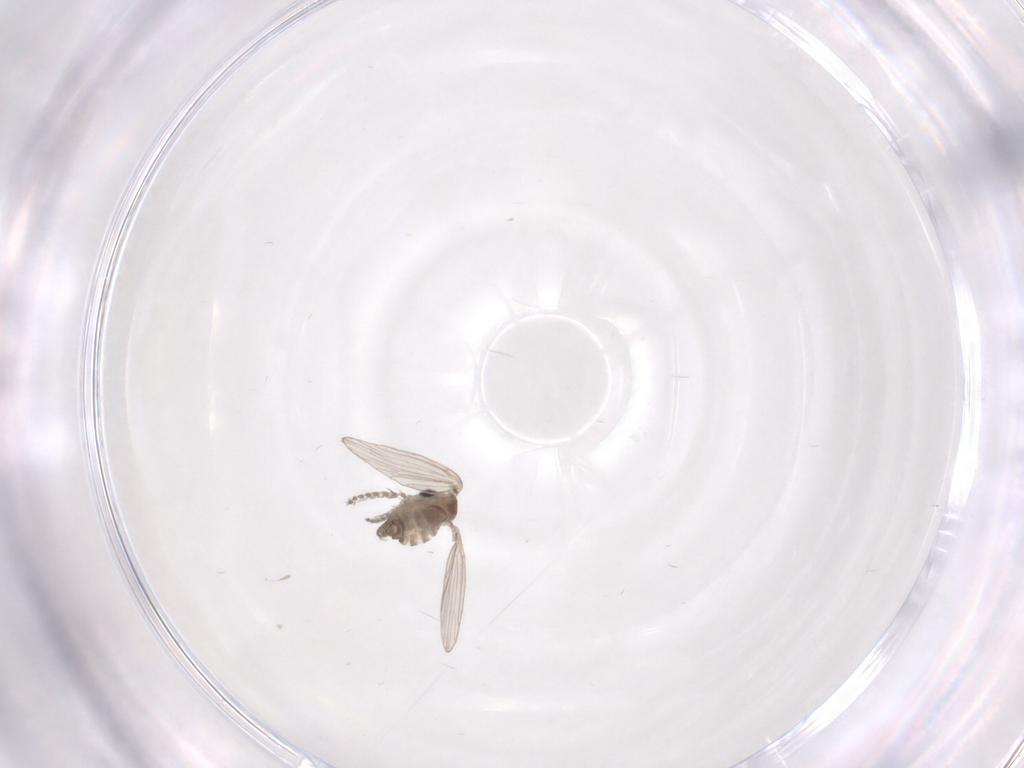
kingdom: Animalia
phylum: Arthropoda
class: Insecta
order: Diptera
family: Psychodidae
